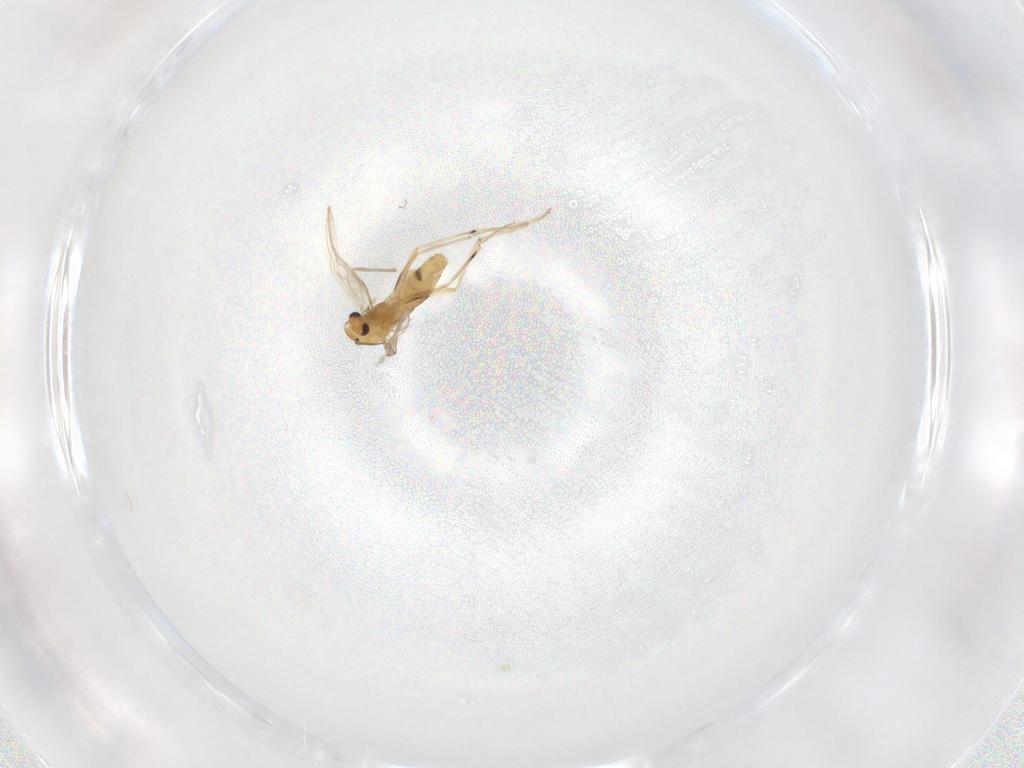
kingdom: Animalia
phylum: Arthropoda
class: Insecta
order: Diptera
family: Chironomidae
